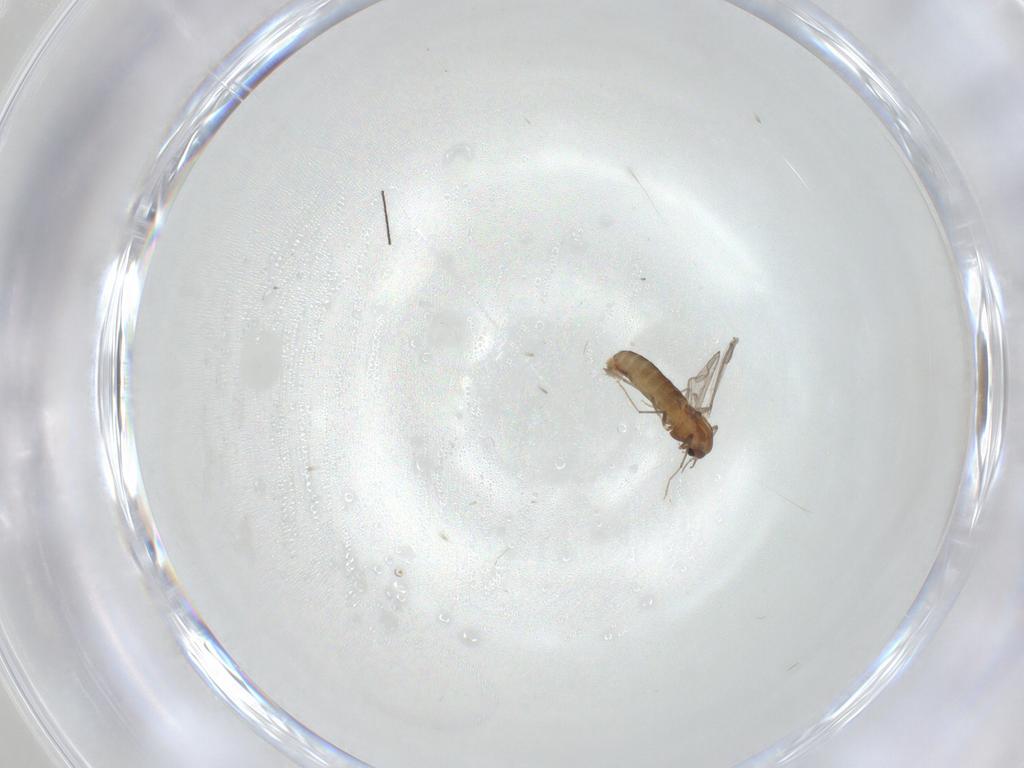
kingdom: Animalia
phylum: Arthropoda
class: Insecta
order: Diptera
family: Chironomidae
